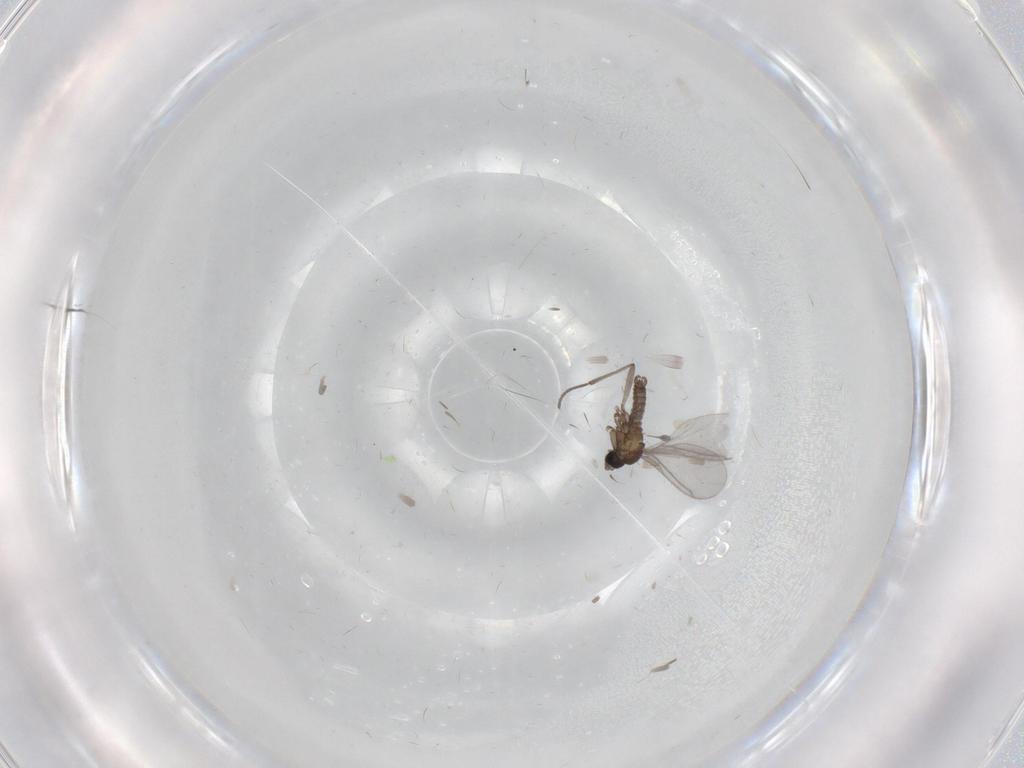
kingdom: Animalia
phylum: Arthropoda
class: Insecta
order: Diptera
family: Sciaridae
